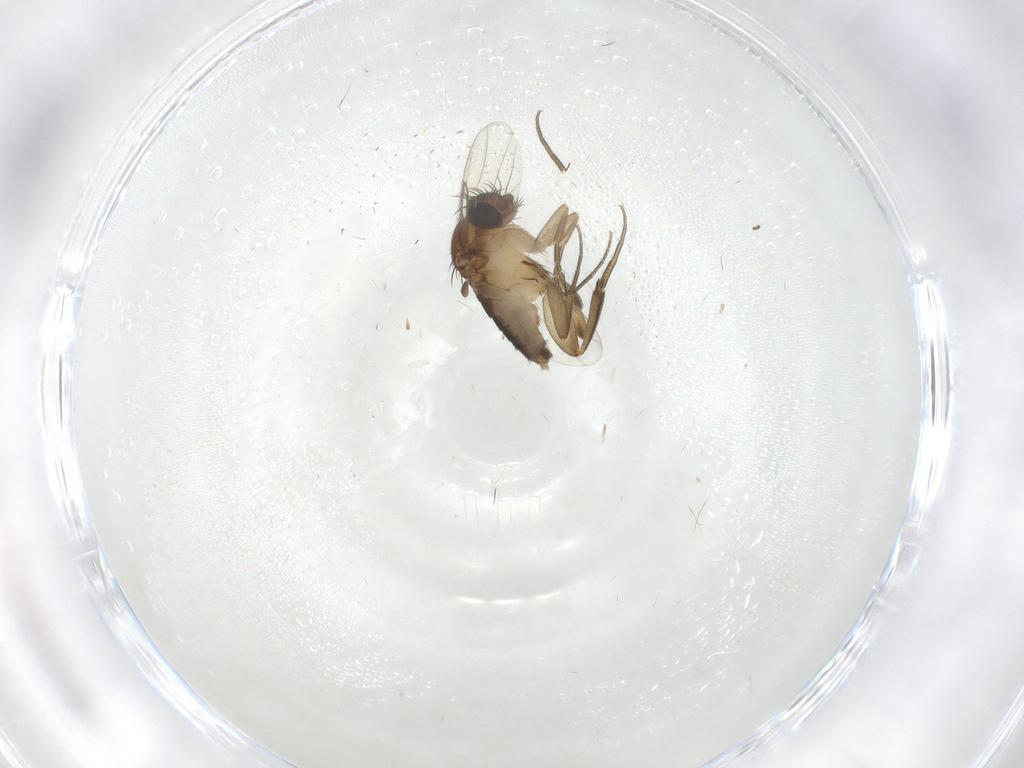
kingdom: Animalia
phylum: Arthropoda
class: Insecta
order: Diptera
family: Phoridae
